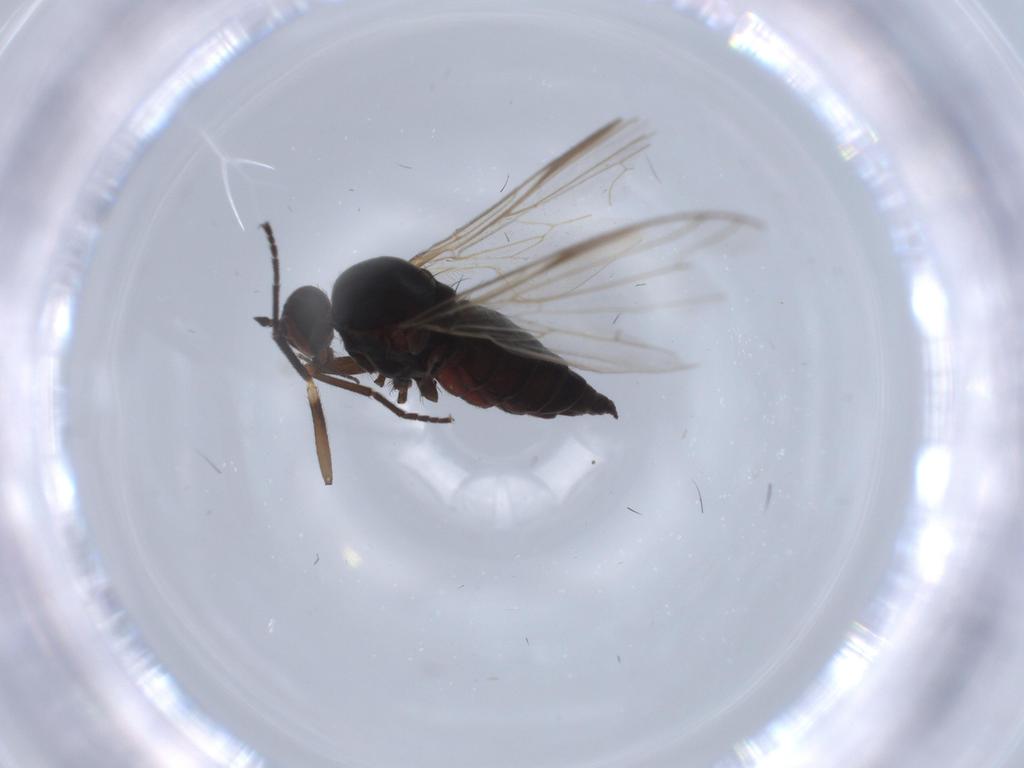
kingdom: Animalia
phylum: Arthropoda
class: Insecta
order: Diptera
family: Empididae
